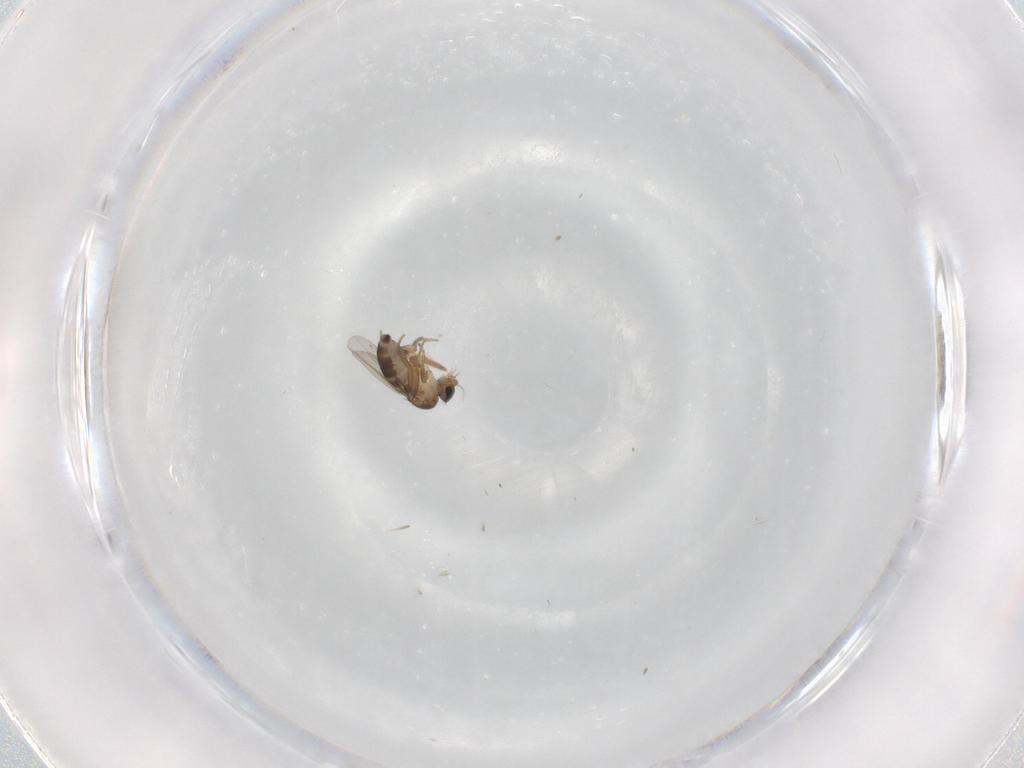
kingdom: Animalia
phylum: Arthropoda
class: Insecta
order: Diptera
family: Phoridae
